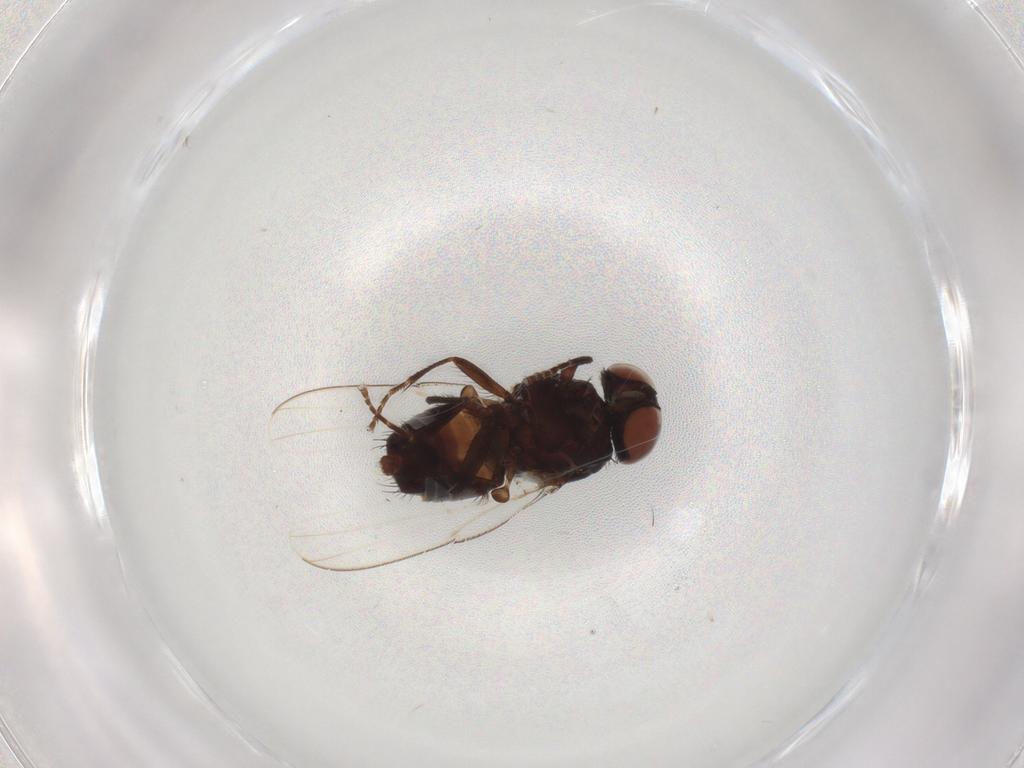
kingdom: Animalia
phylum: Arthropoda
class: Insecta
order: Diptera
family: Milichiidae
